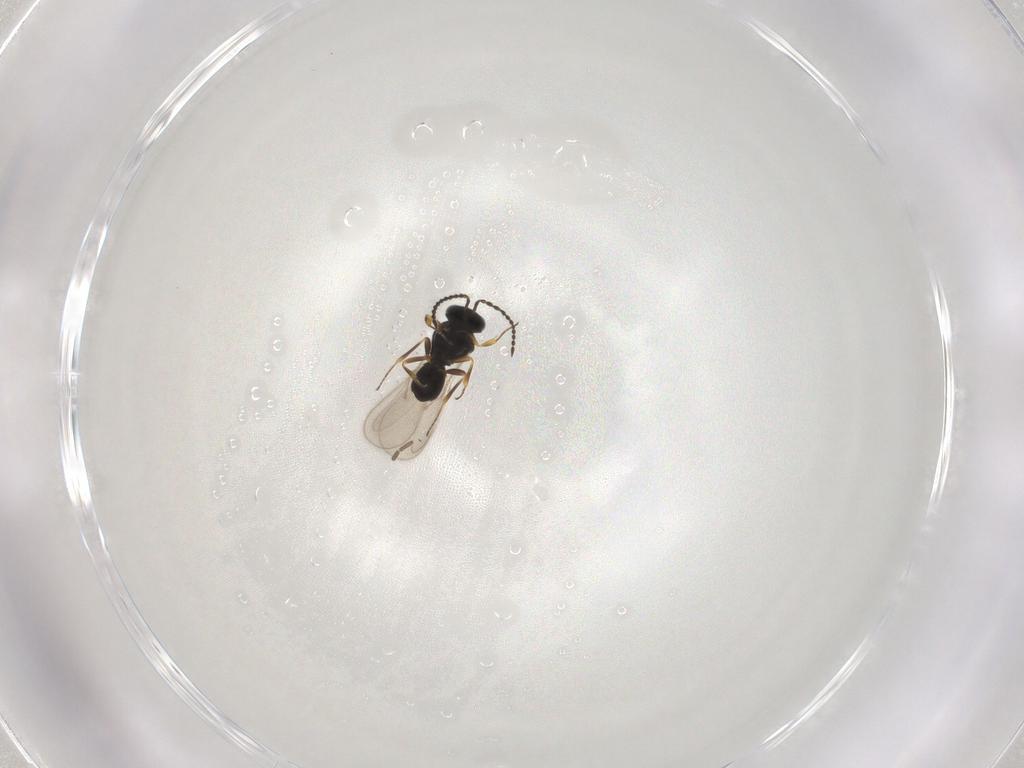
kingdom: Animalia
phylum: Arthropoda
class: Insecta
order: Hymenoptera
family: Scelionidae
